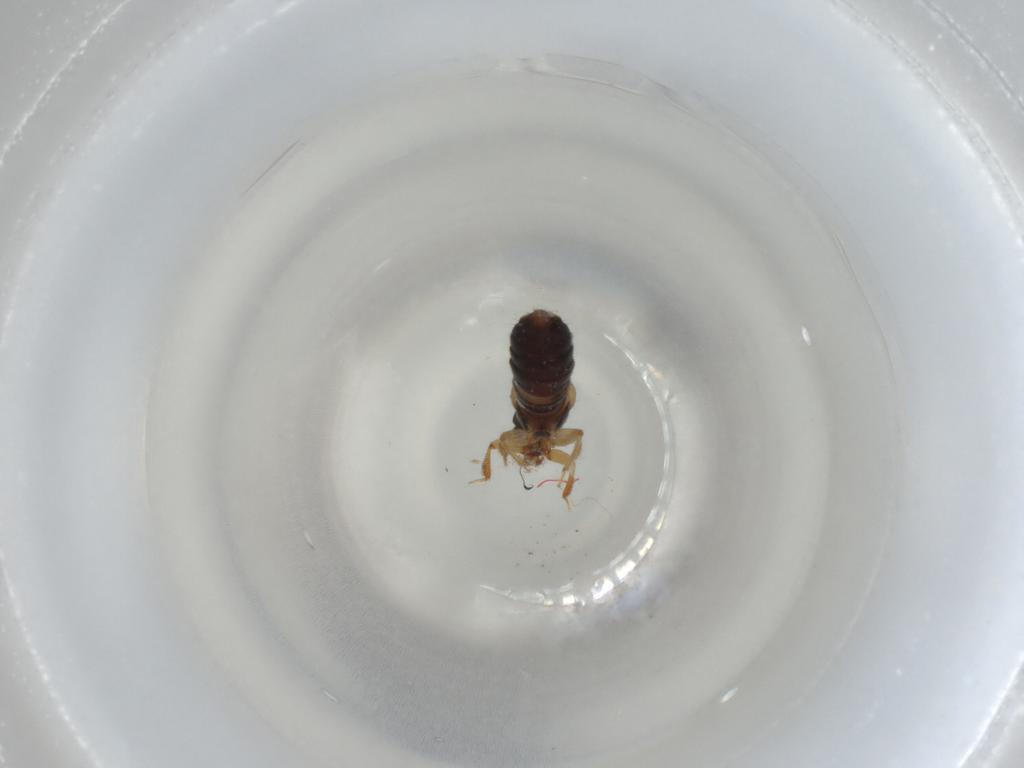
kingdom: Animalia
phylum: Arthropoda
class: Insecta
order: Coleoptera
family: Staphylinidae
